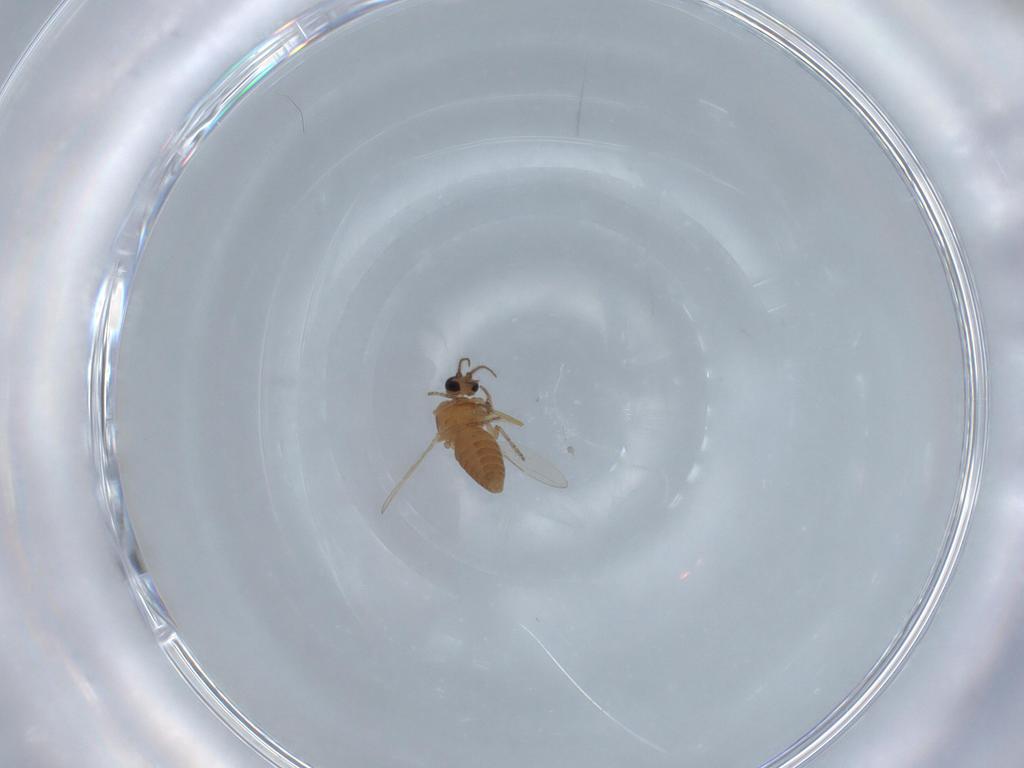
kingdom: Animalia
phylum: Arthropoda
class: Insecta
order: Diptera
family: Ceratopogonidae
